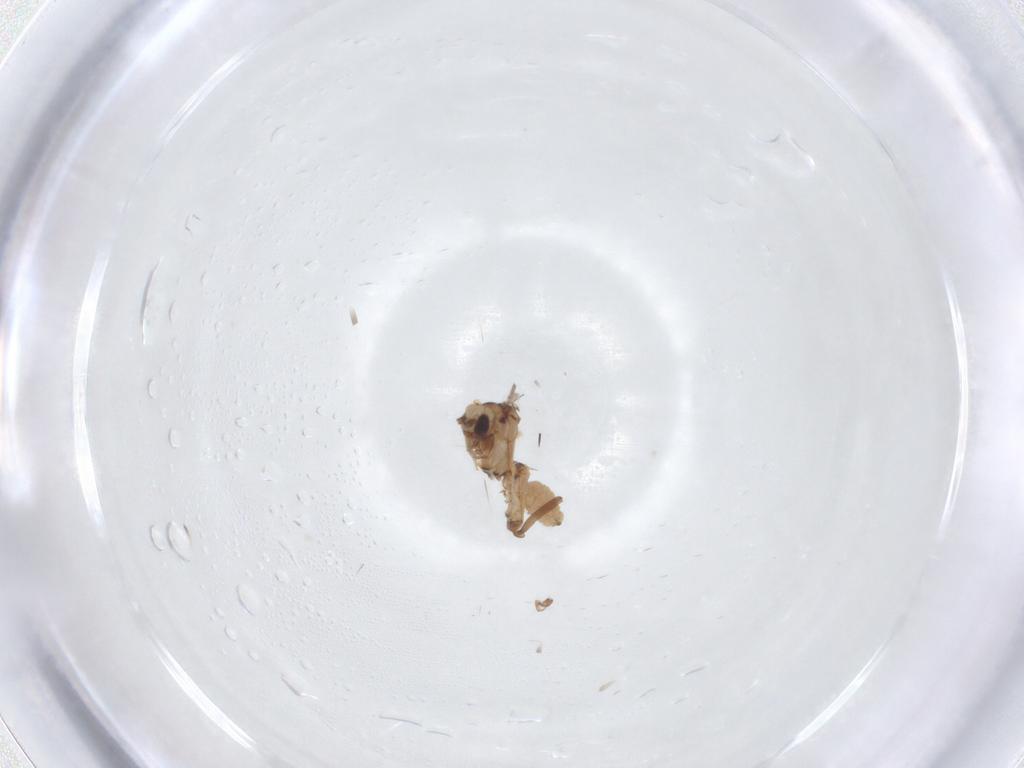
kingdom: Animalia
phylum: Arthropoda
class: Insecta
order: Neuroptera
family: Coniopterygidae
